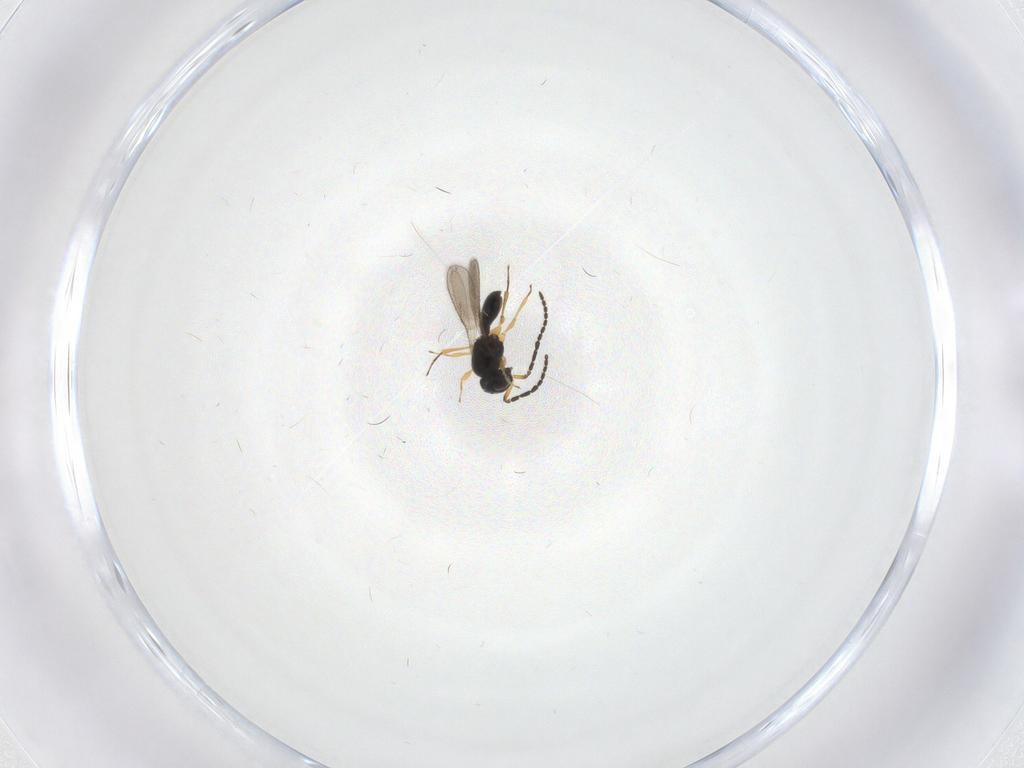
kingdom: Animalia
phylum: Arthropoda
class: Insecta
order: Hymenoptera
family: Scelionidae
